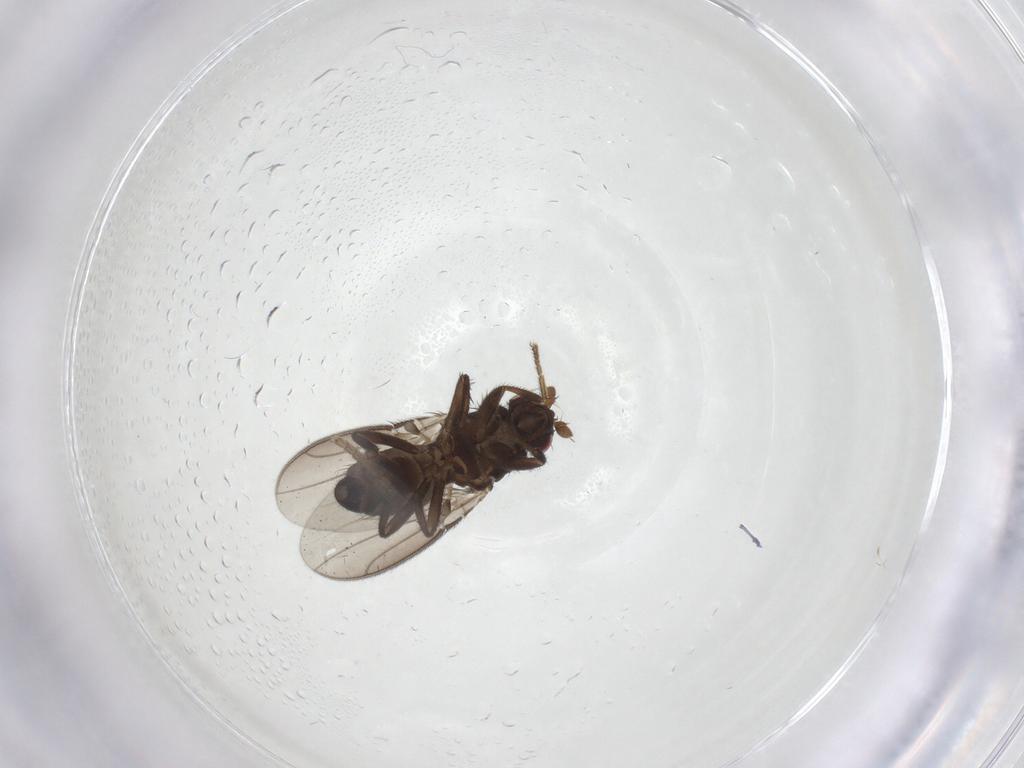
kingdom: Animalia
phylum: Arthropoda
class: Insecta
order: Diptera
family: Sphaeroceridae
